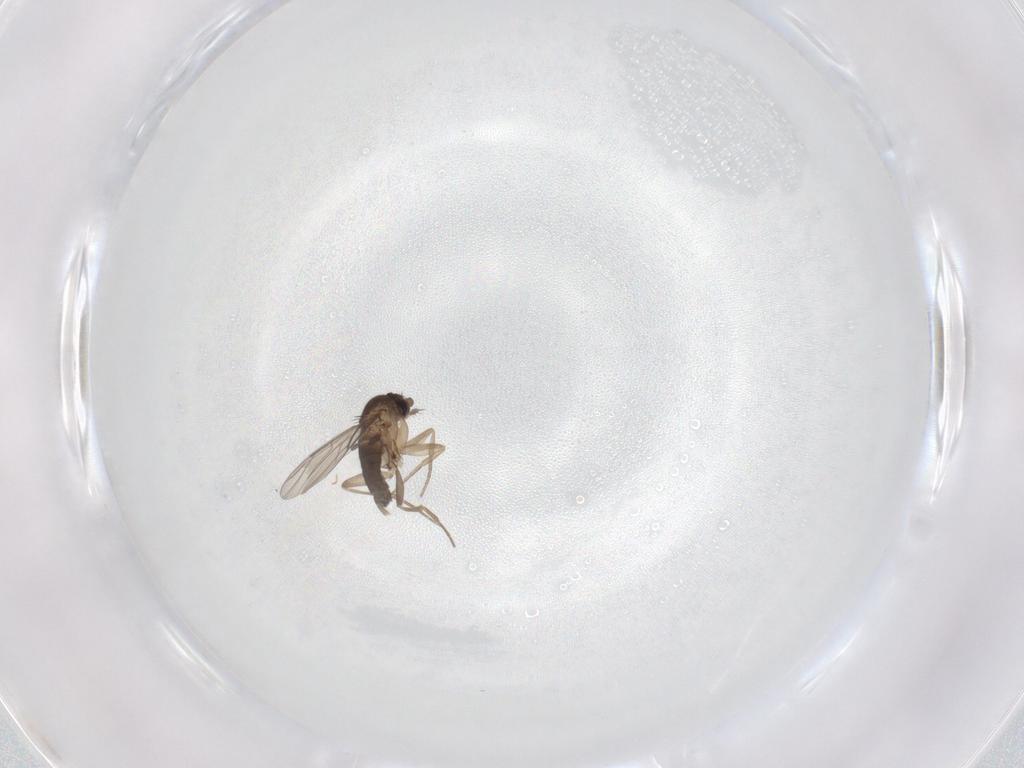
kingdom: Animalia
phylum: Arthropoda
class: Insecta
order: Diptera
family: Phoridae
